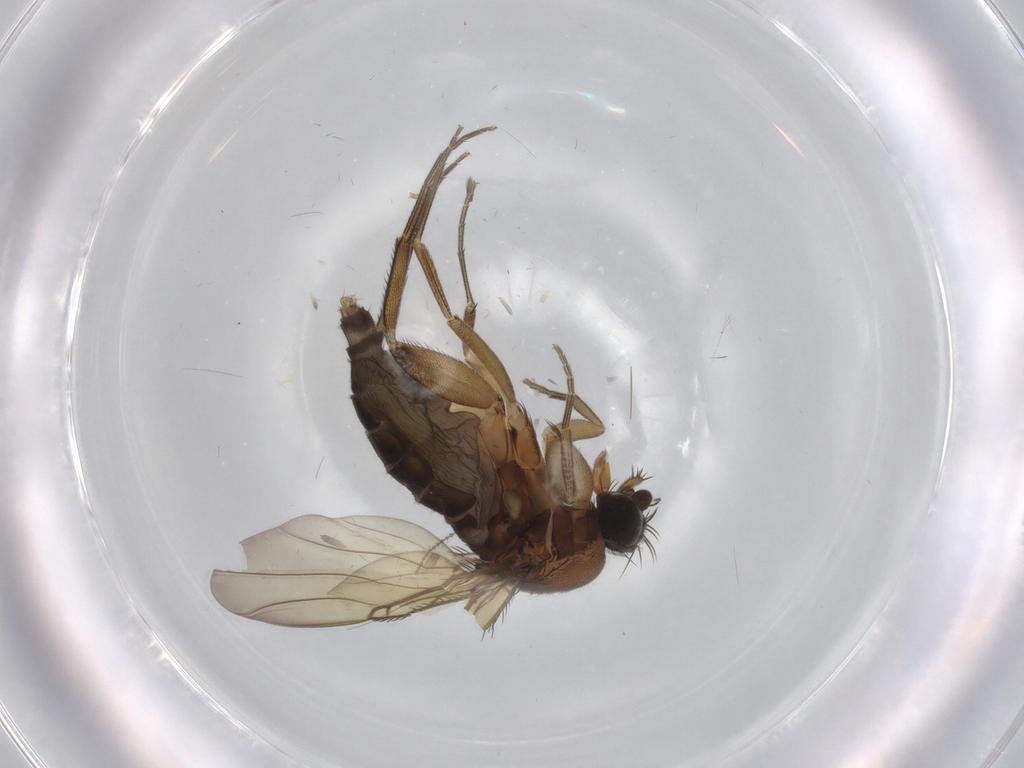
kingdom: Animalia
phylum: Arthropoda
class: Insecta
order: Diptera
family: Phoridae
